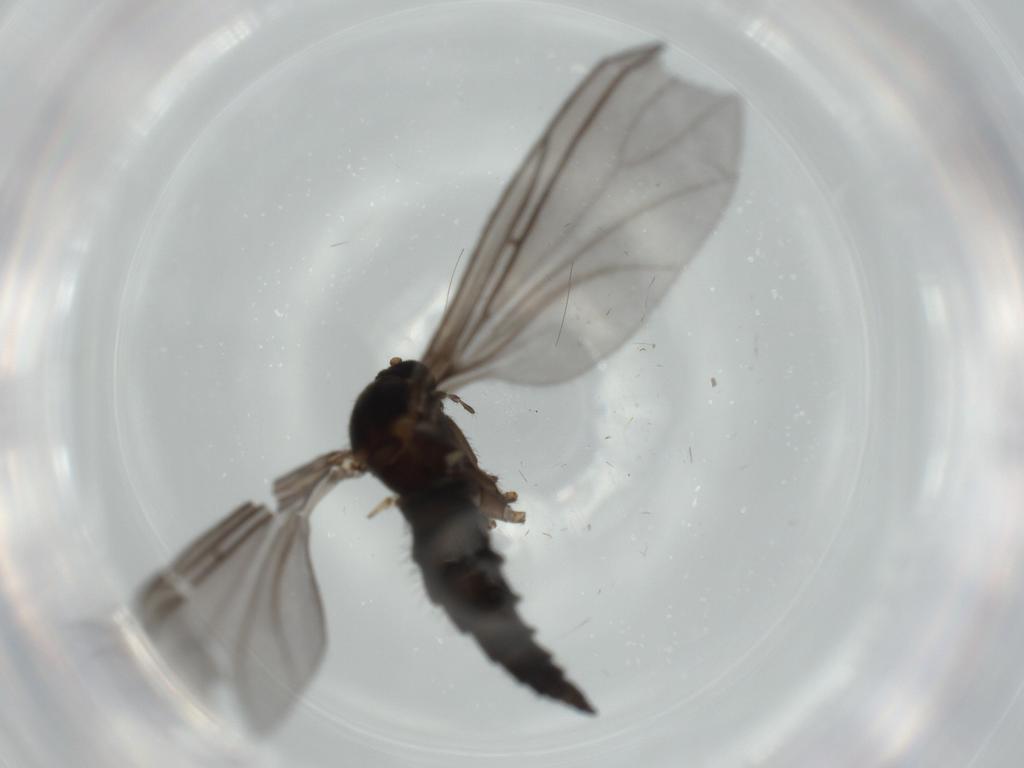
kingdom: Animalia
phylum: Arthropoda
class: Insecta
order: Diptera
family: Sciaridae
